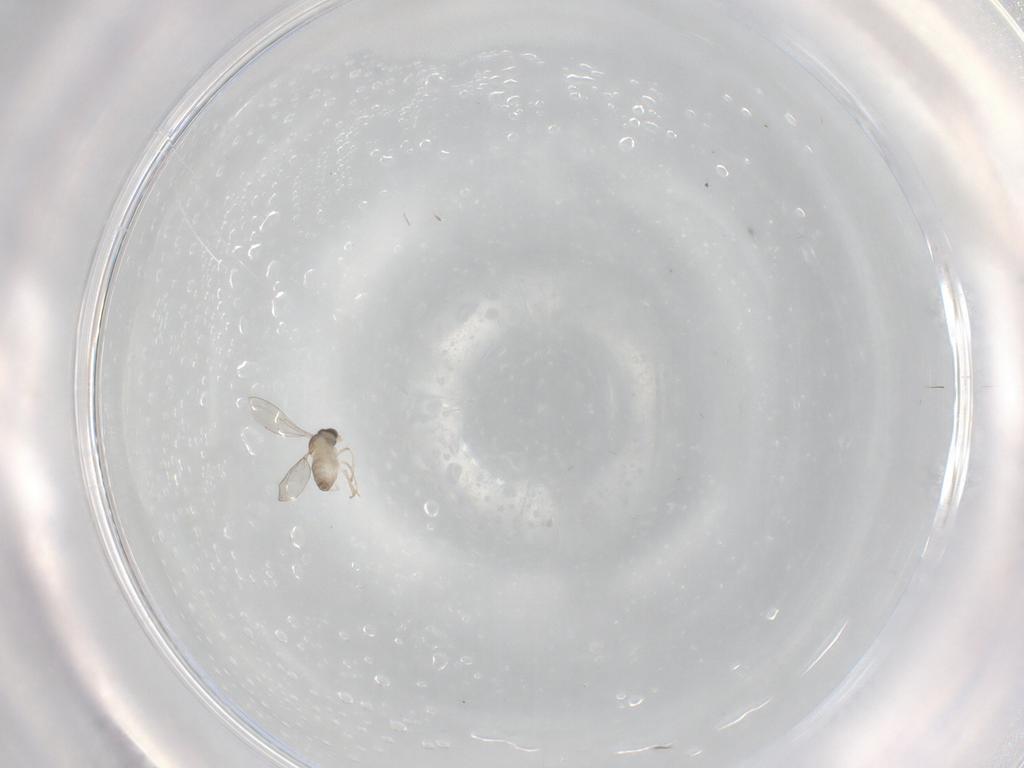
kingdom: Animalia
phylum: Arthropoda
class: Insecta
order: Diptera
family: Cecidomyiidae
